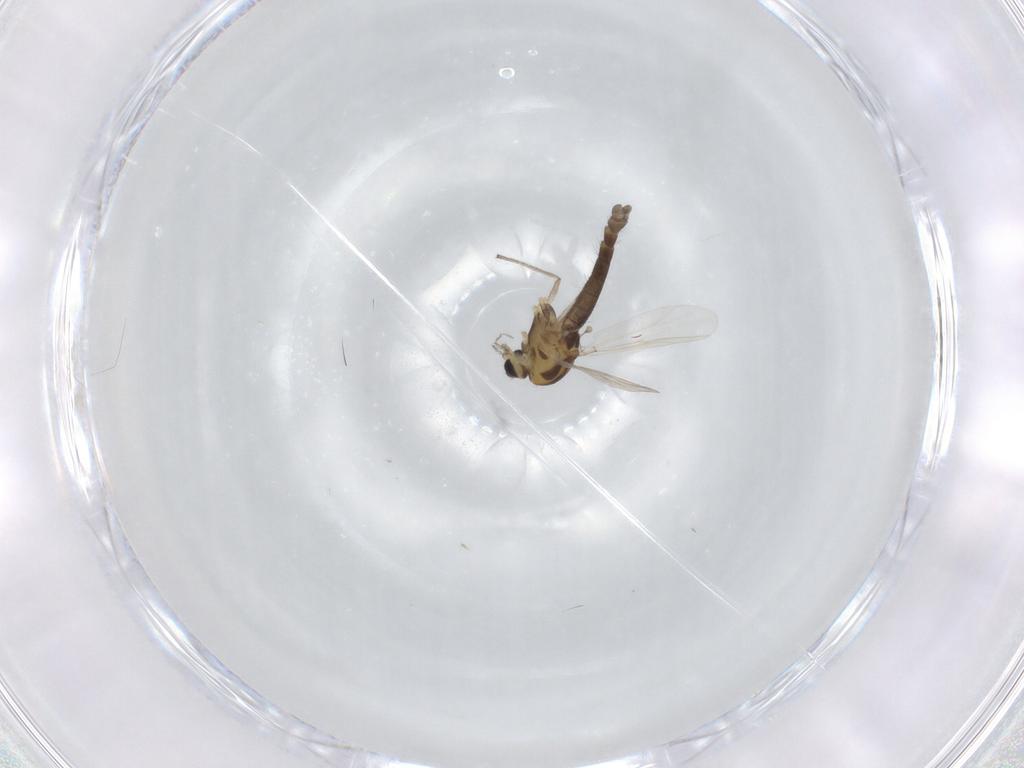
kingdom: Animalia
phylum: Arthropoda
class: Insecta
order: Diptera
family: Chironomidae
